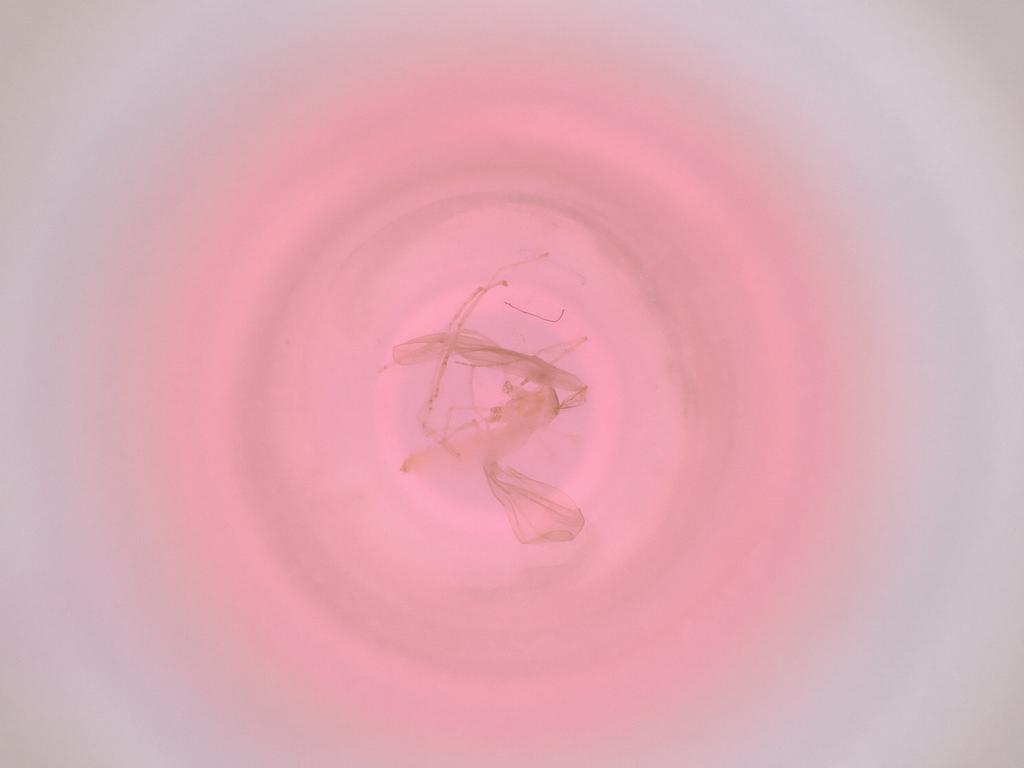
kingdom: Animalia
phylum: Arthropoda
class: Insecta
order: Diptera
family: Cecidomyiidae
